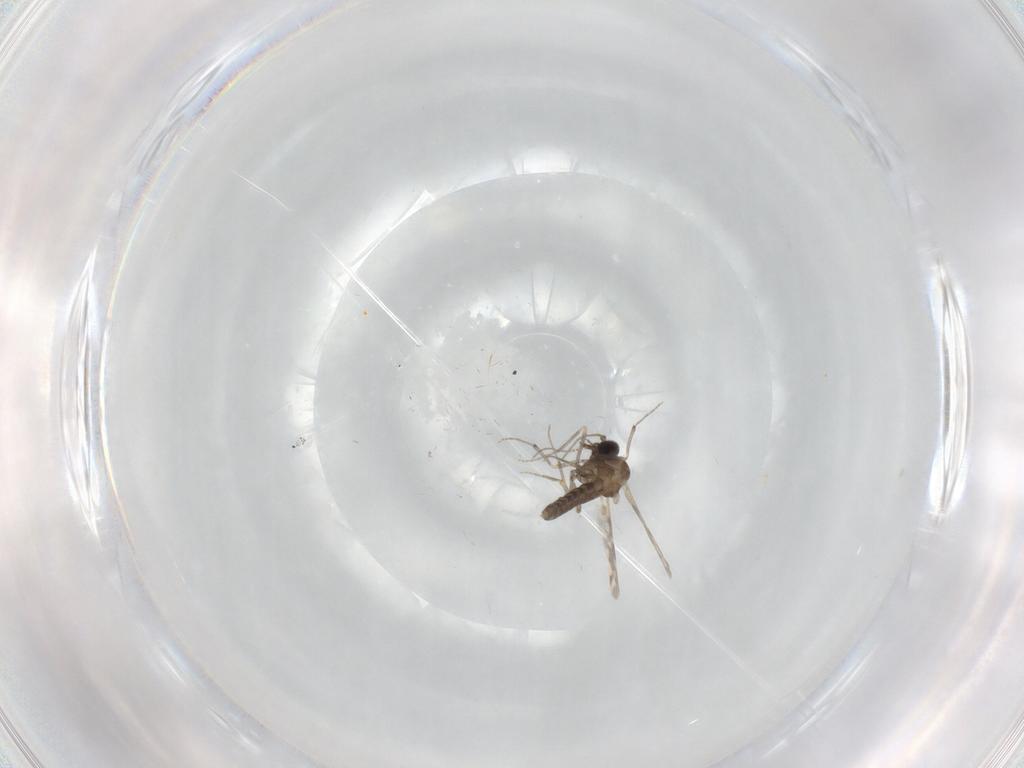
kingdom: Animalia
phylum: Arthropoda
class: Insecta
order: Diptera
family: Ceratopogonidae
